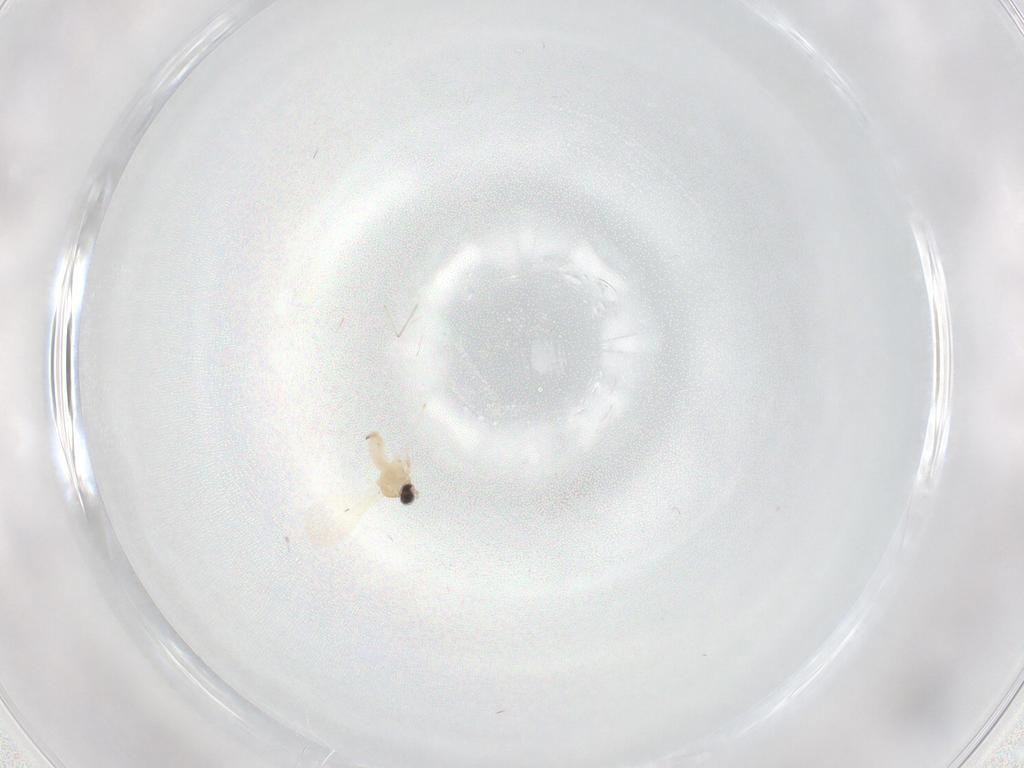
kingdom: Animalia
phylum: Arthropoda
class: Insecta
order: Diptera
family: Cecidomyiidae
